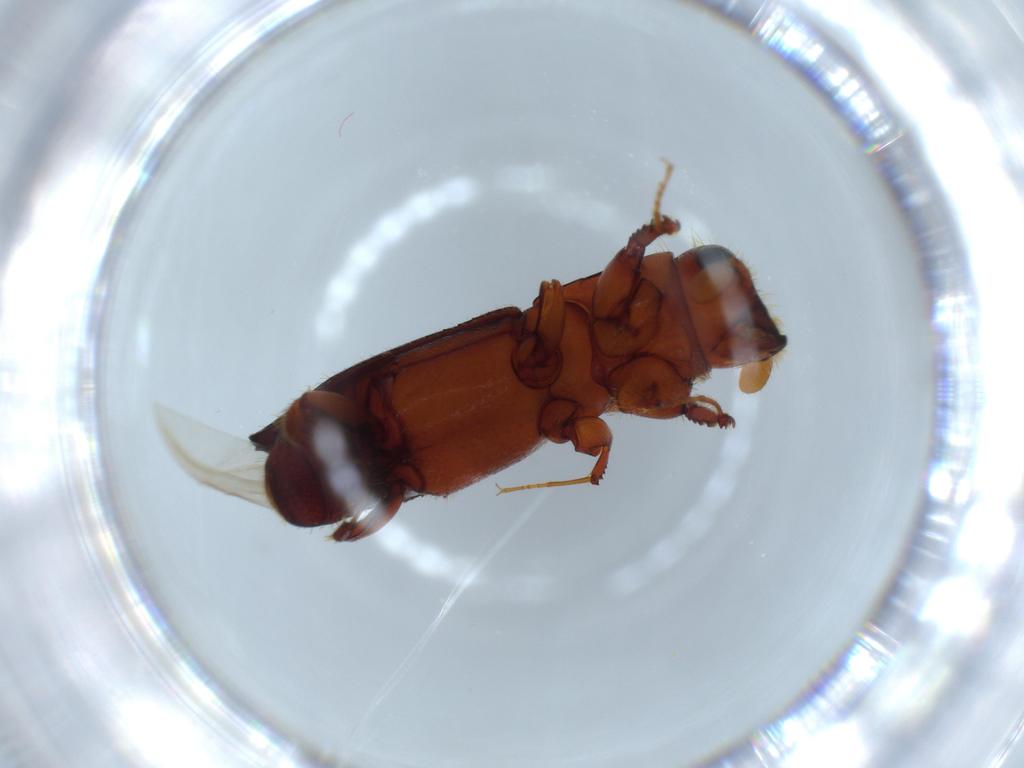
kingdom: Animalia
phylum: Arthropoda
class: Insecta
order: Coleoptera
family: Curculionidae
